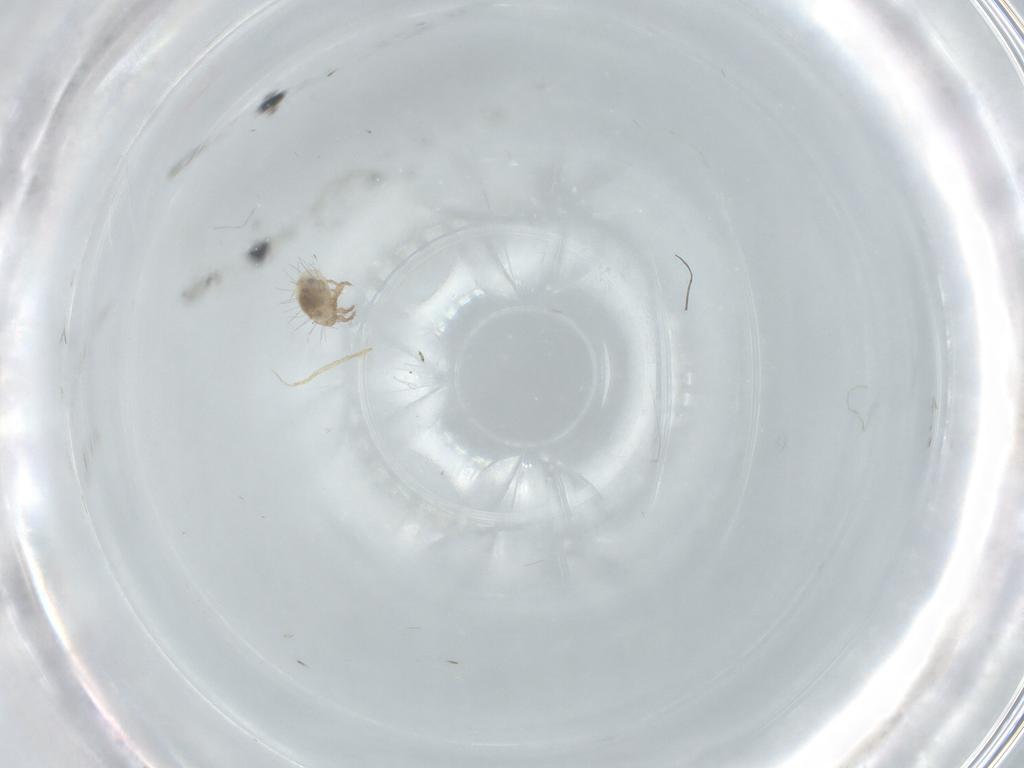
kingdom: Animalia
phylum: Arthropoda
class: Arachnida
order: Sarcoptiformes
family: Mochlozetidae
